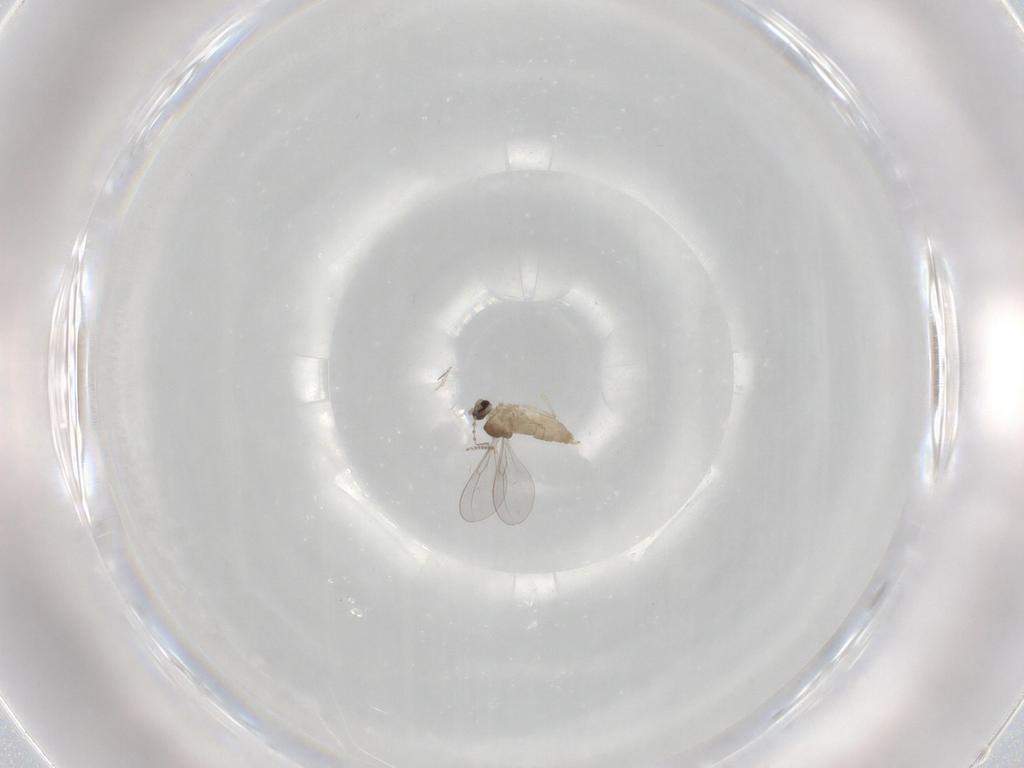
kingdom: Animalia
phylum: Arthropoda
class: Insecta
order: Diptera
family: Cecidomyiidae
